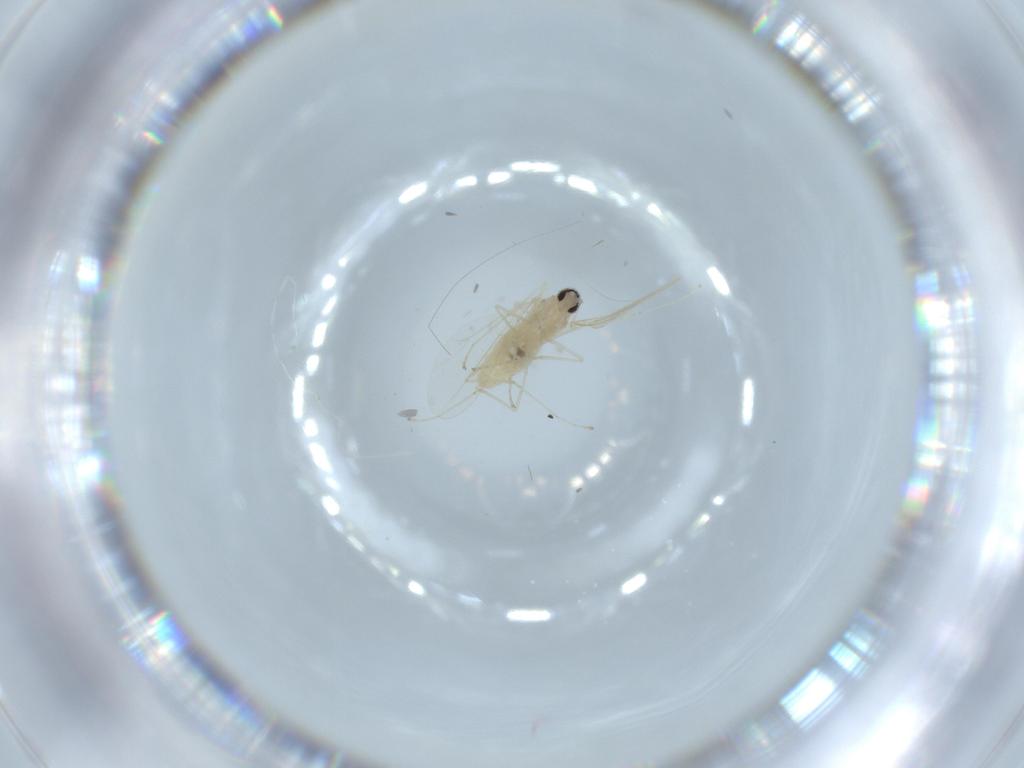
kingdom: Animalia
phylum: Arthropoda
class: Insecta
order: Diptera
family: Cecidomyiidae
